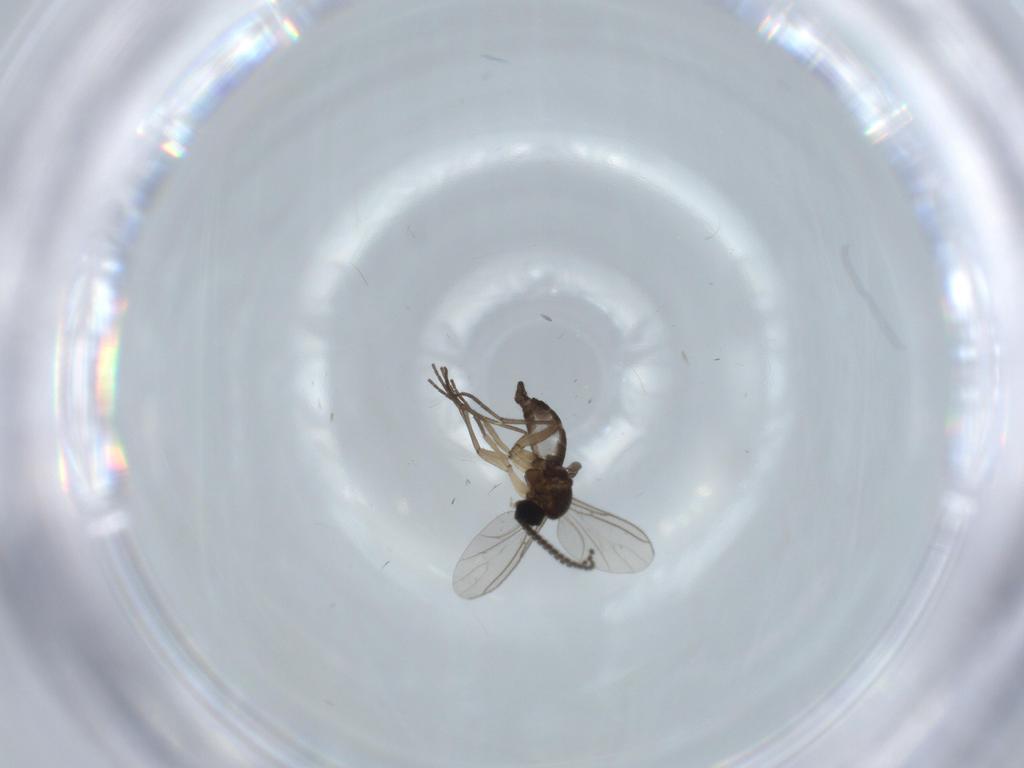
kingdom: Animalia
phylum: Arthropoda
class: Insecta
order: Diptera
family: Sciaridae
